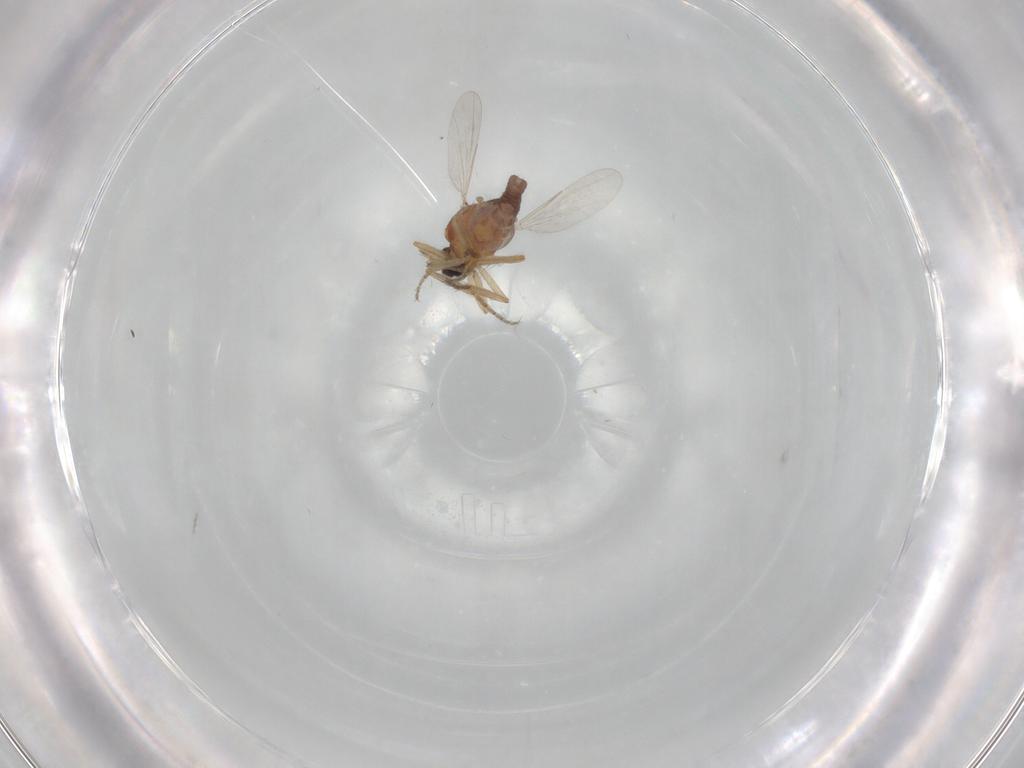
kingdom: Animalia
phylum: Arthropoda
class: Insecta
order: Diptera
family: Ceratopogonidae
